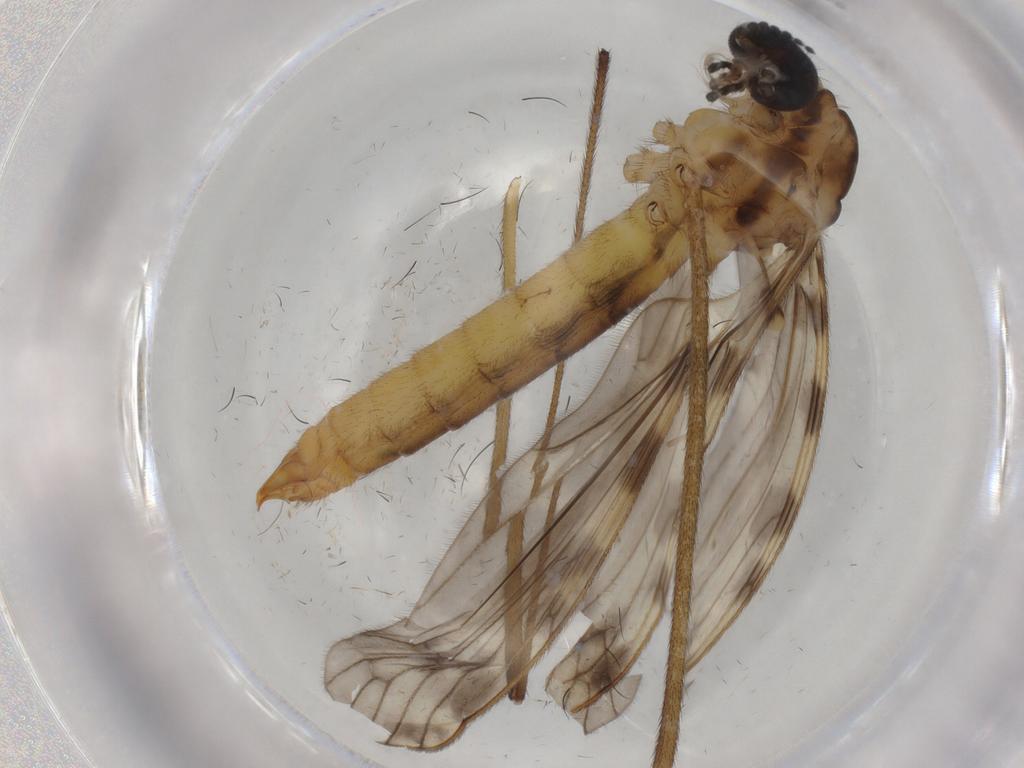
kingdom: Animalia
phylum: Arthropoda
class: Insecta
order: Diptera
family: Limoniidae
